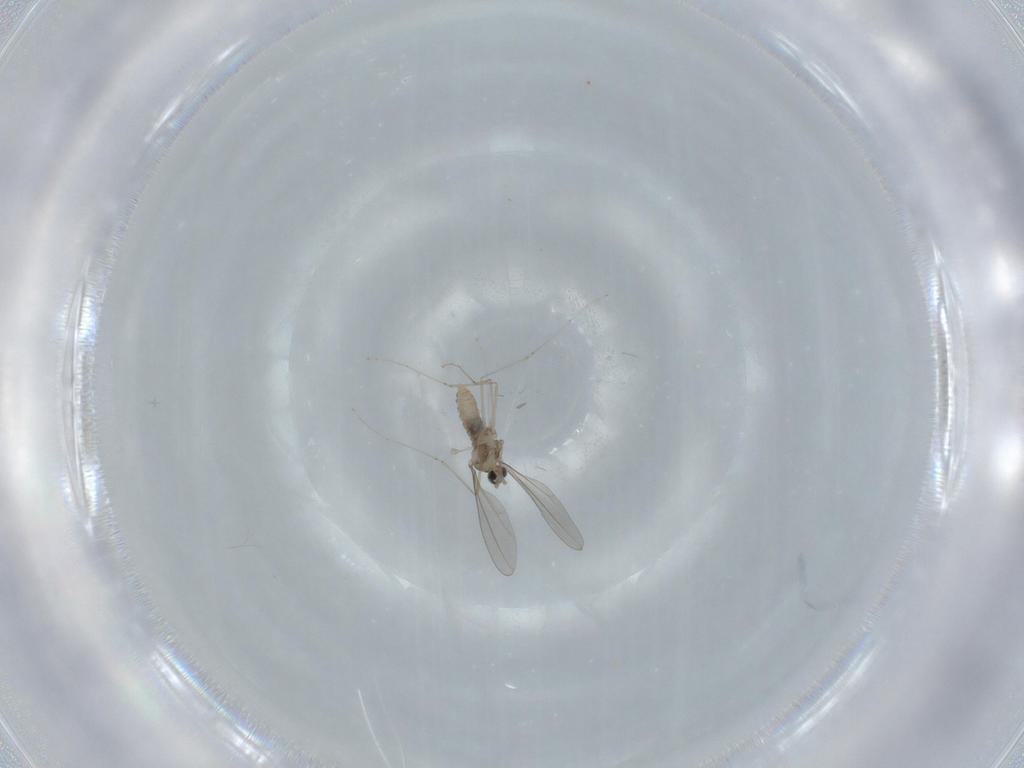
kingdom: Animalia
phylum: Arthropoda
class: Insecta
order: Diptera
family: Cecidomyiidae
